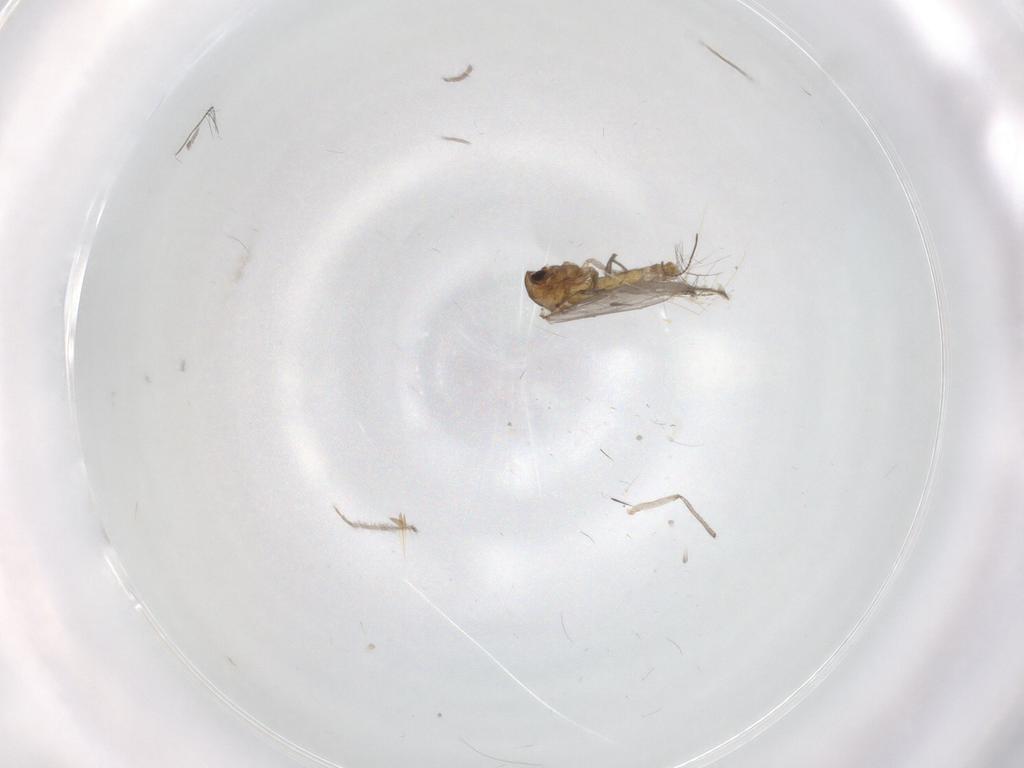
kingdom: Animalia
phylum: Arthropoda
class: Insecta
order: Diptera
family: Chironomidae
